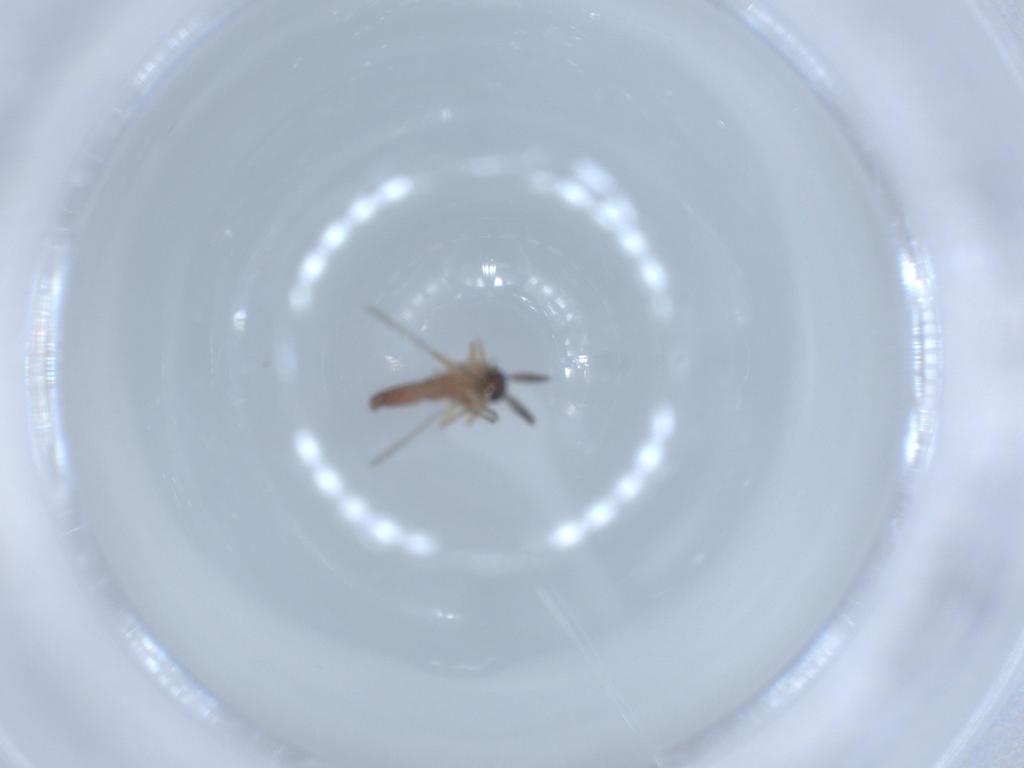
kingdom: Animalia
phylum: Arthropoda
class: Insecta
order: Diptera
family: Ceratopogonidae
